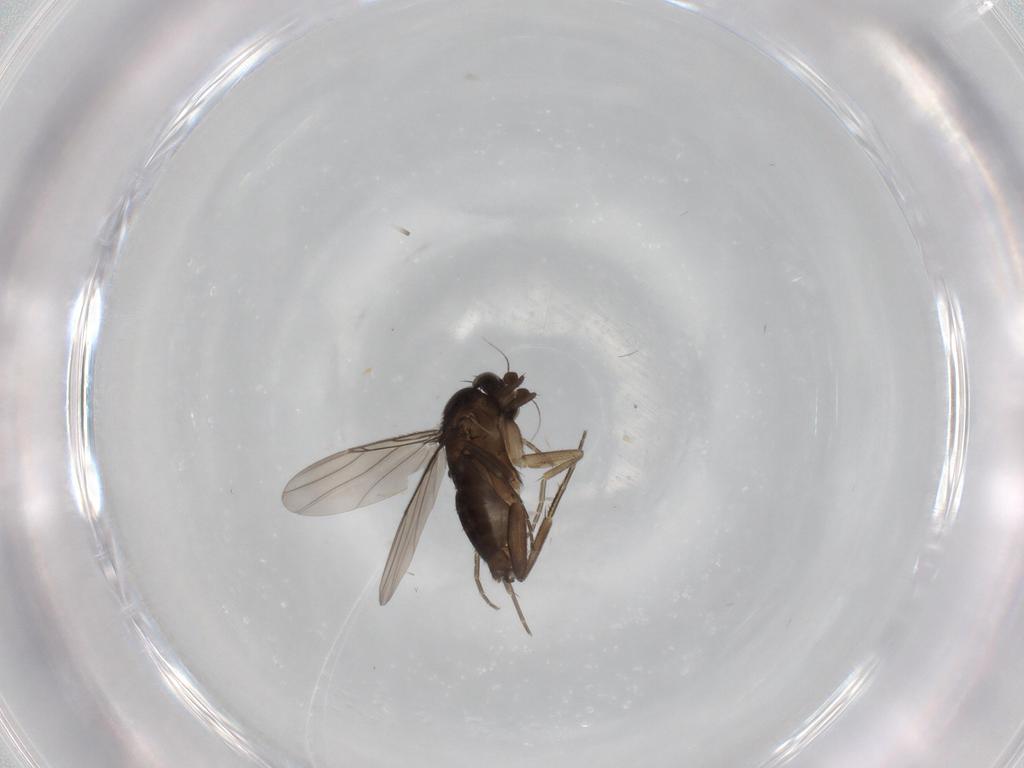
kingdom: Animalia
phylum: Arthropoda
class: Insecta
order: Diptera
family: Phoridae
